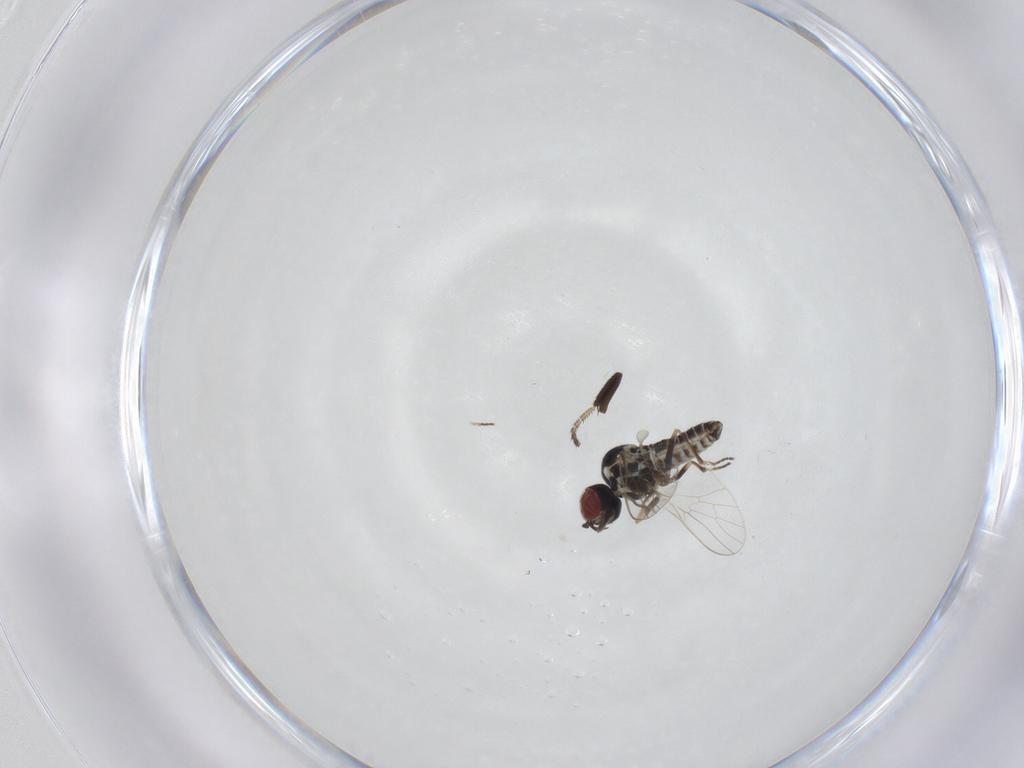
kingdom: Animalia
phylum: Arthropoda
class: Insecta
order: Diptera
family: Mythicomyiidae
